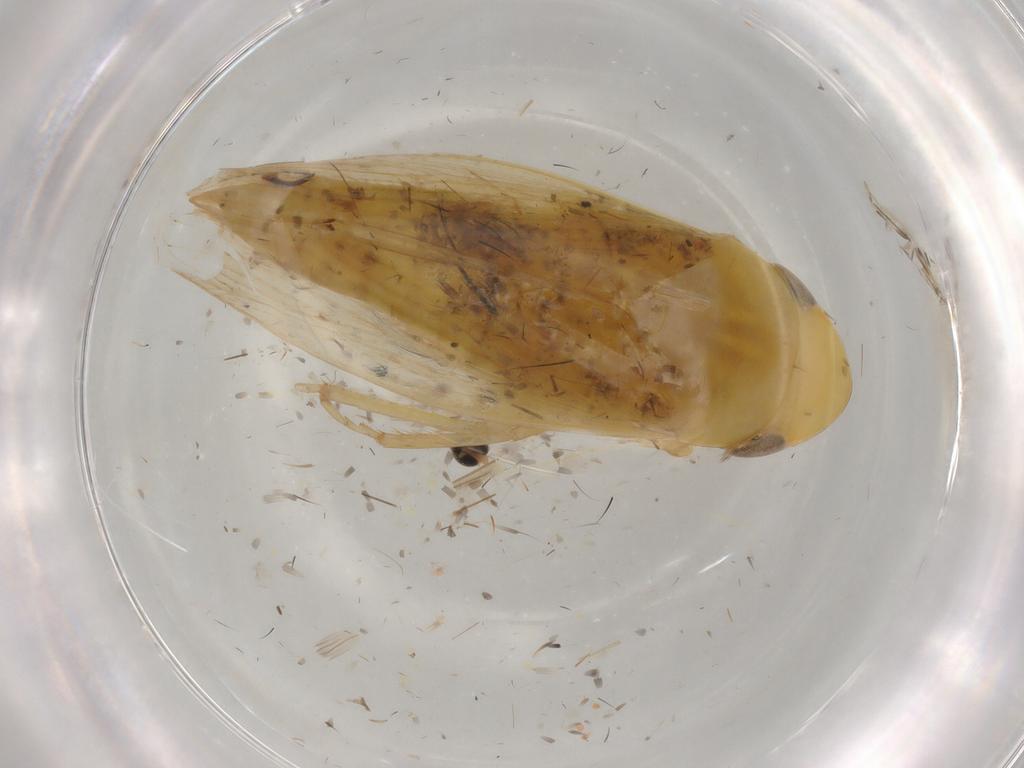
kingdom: Animalia
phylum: Arthropoda
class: Insecta
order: Hemiptera
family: Cicadellidae
